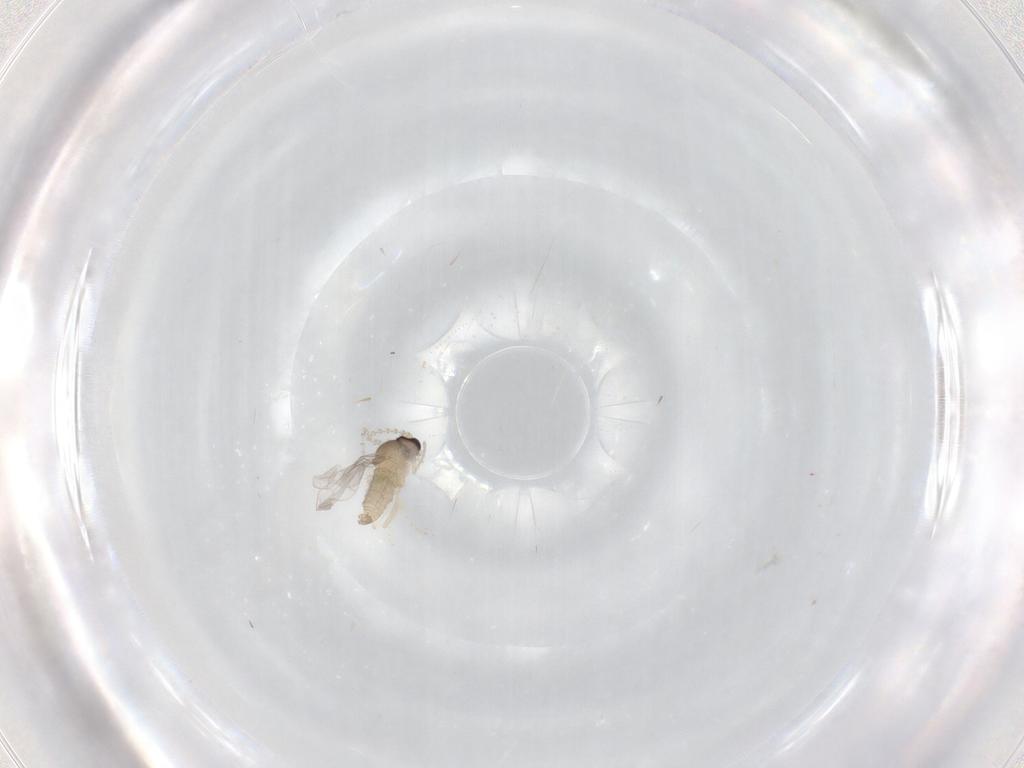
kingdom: Animalia
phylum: Arthropoda
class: Insecta
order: Diptera
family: Cecidomyiidae
